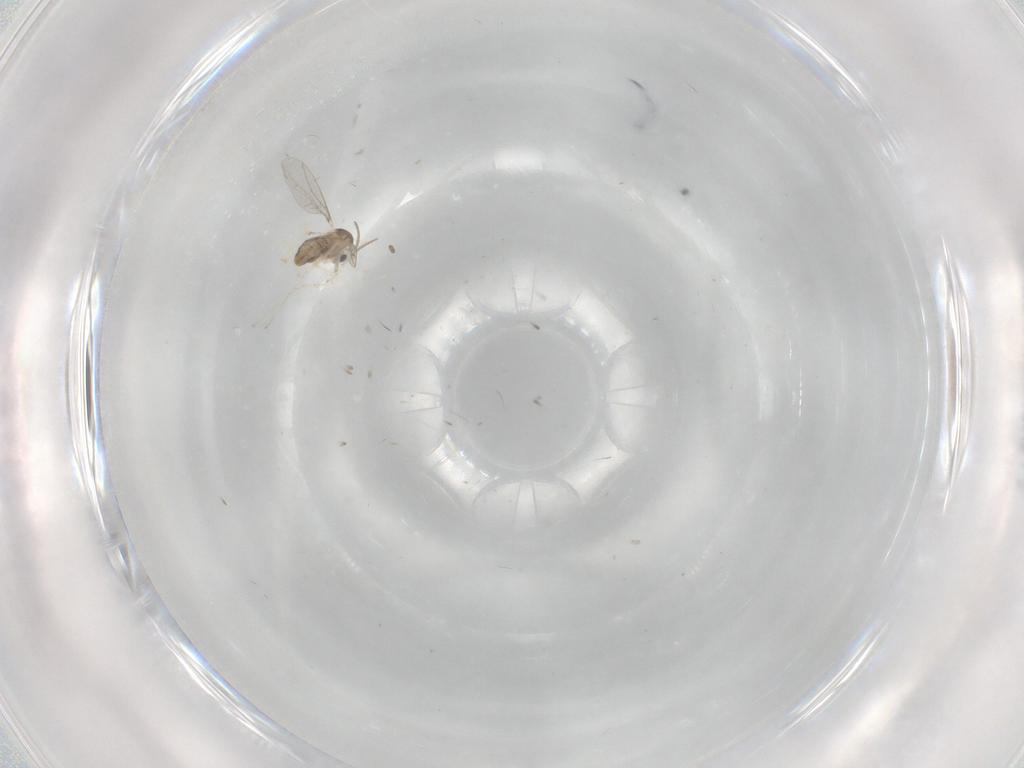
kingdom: Animalia
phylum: Arthropoda
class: Insecta
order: Diptera
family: Cecidomyiidae
